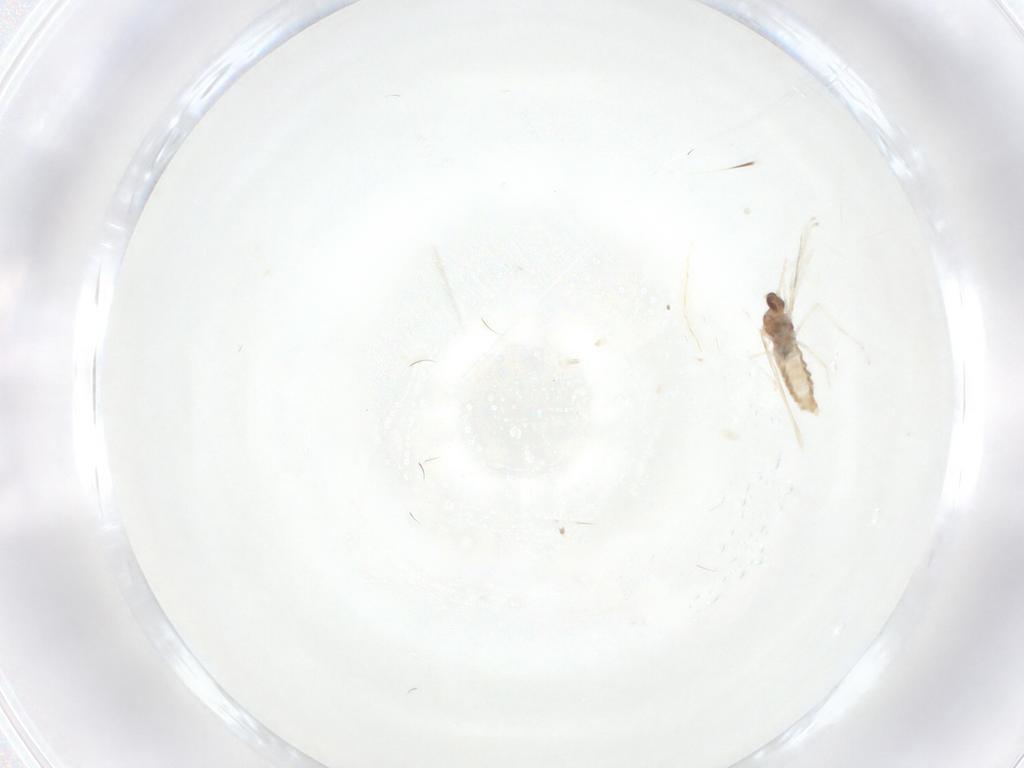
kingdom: Animalia
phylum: Arthropoda
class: Insecta
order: Diptera
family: Cecidomyiidae
